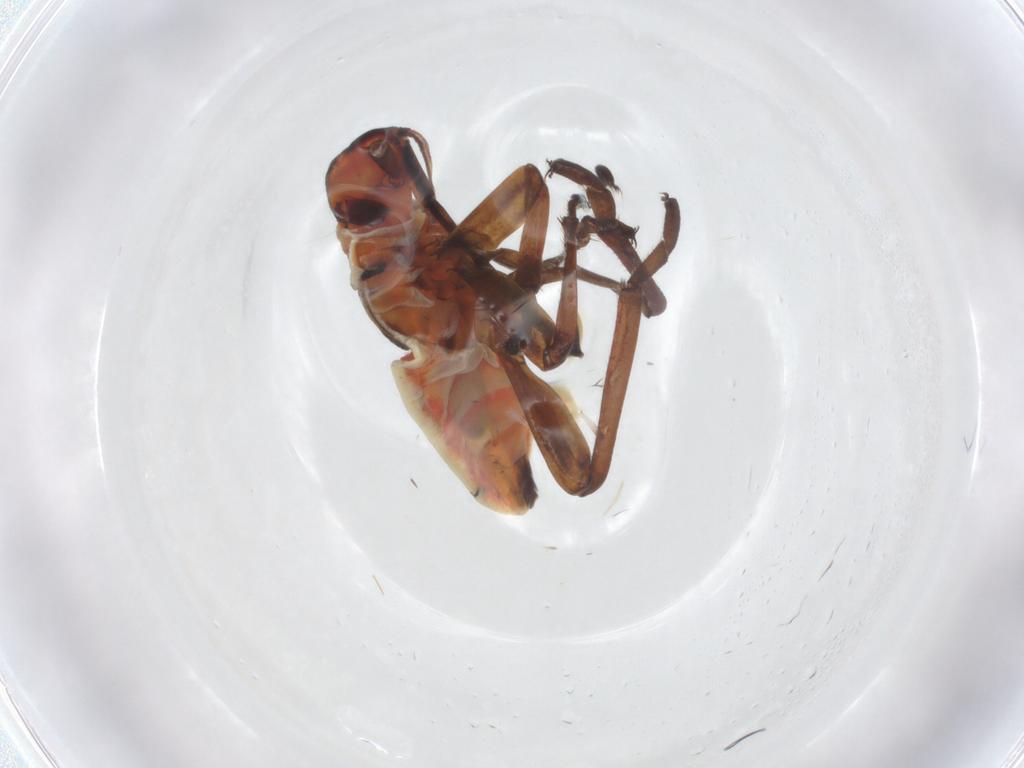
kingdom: Animalia
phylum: Arthropoda
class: Insecta
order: Hemiptera
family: Lygaeidae
